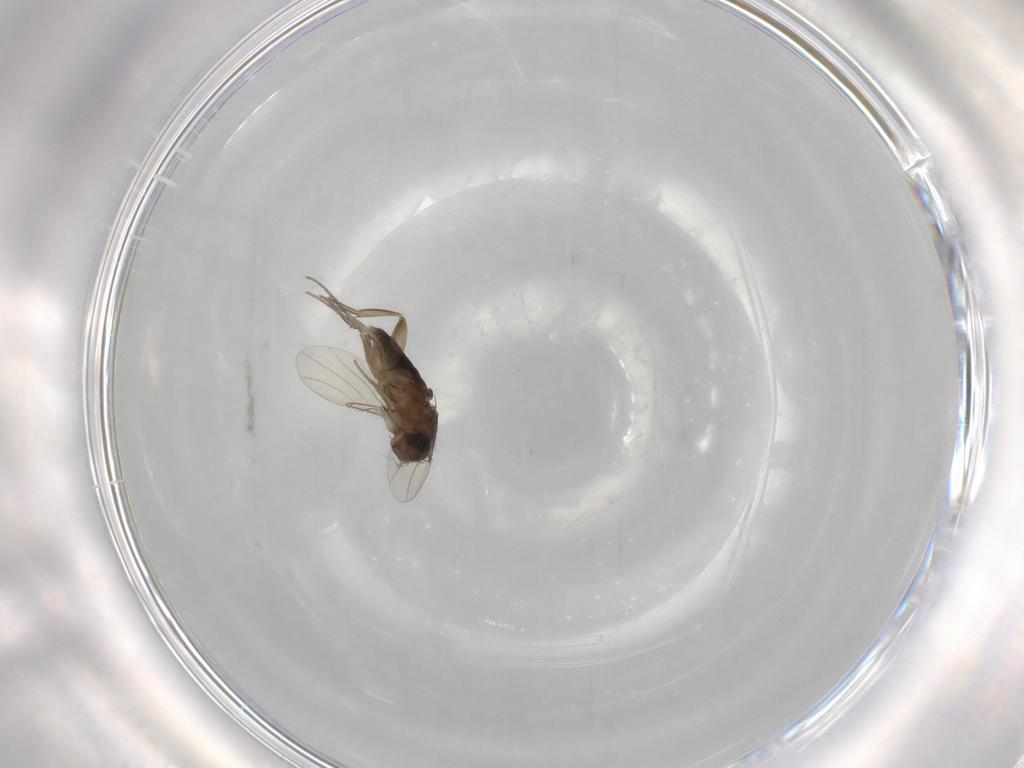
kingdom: Animalia
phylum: Arthropoda
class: Insecta
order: Diptera
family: Phoridae
